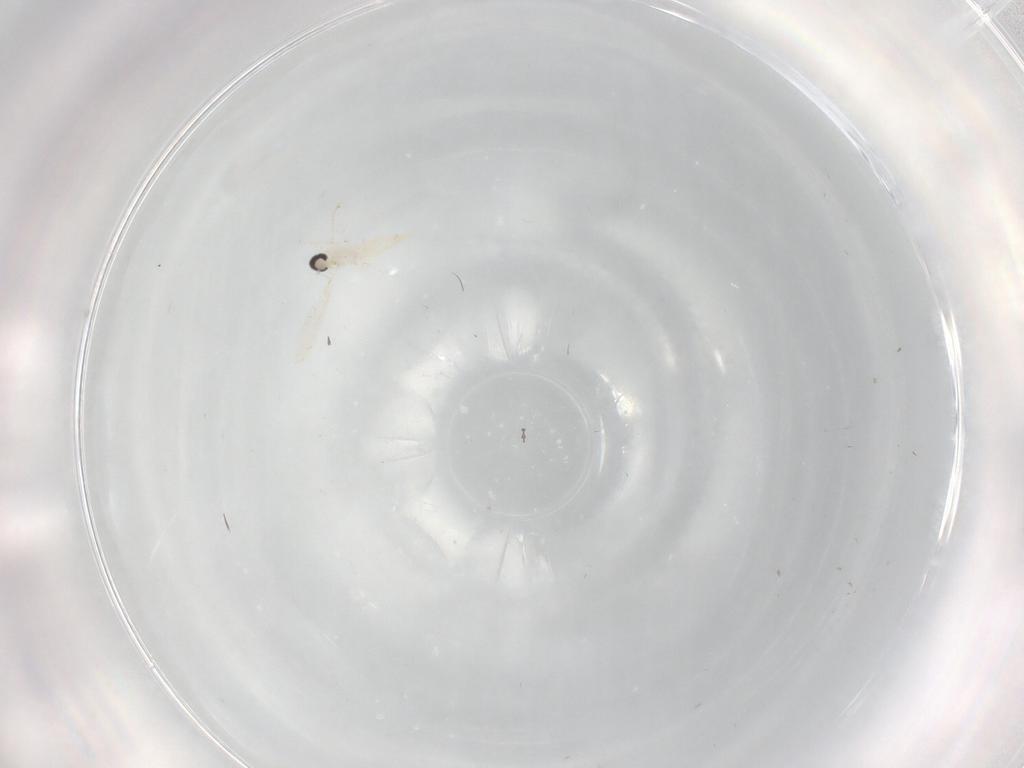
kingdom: Animalia
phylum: Arthropoda
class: Insecta
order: Diptera
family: Cecidomyiidae
